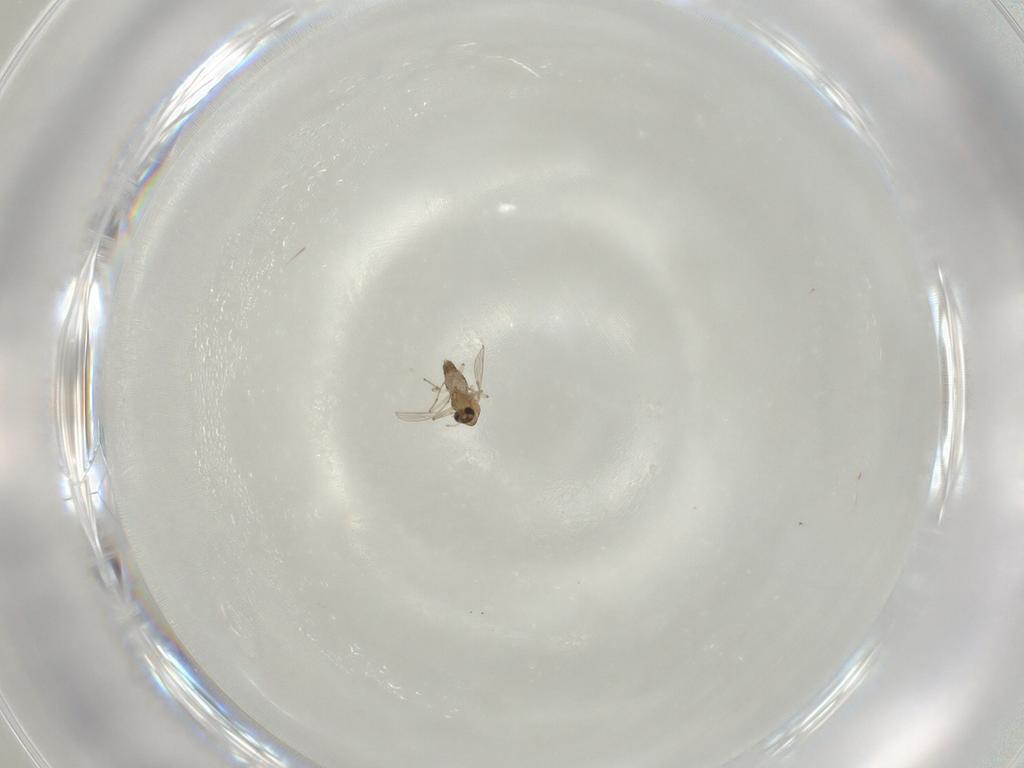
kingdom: Animalia
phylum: Arthropoda
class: Insecta
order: Diptera
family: Chironomidae
